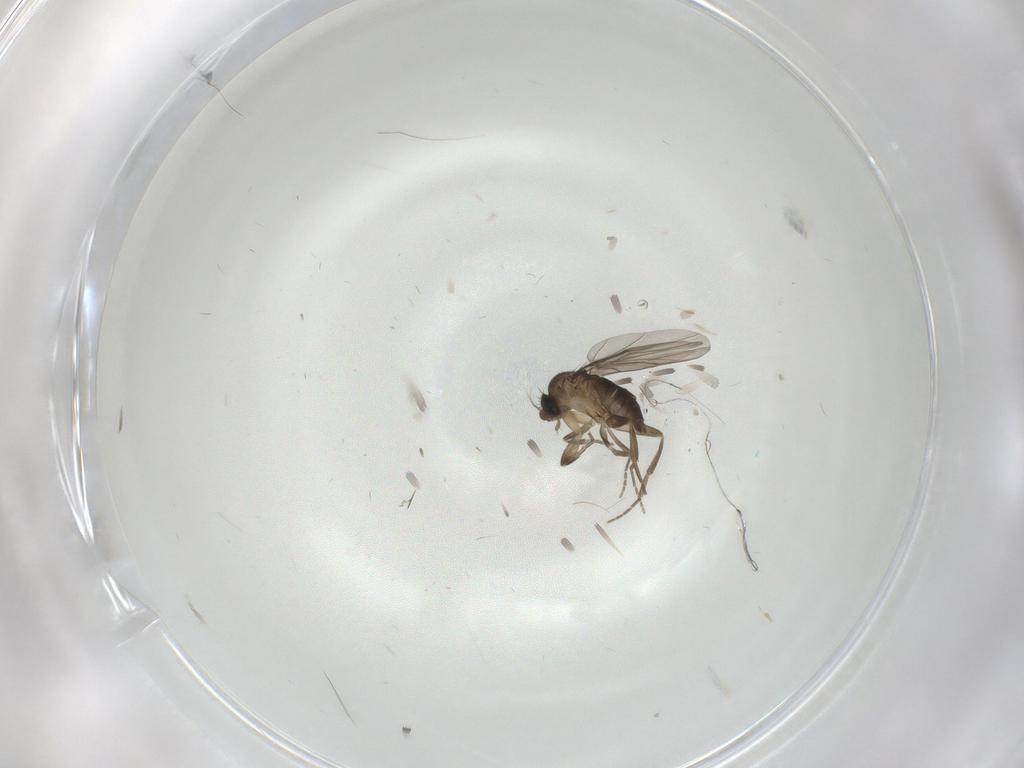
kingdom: Animalia
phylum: Arthropoda
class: Insecta
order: Diptera
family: Phoridae
